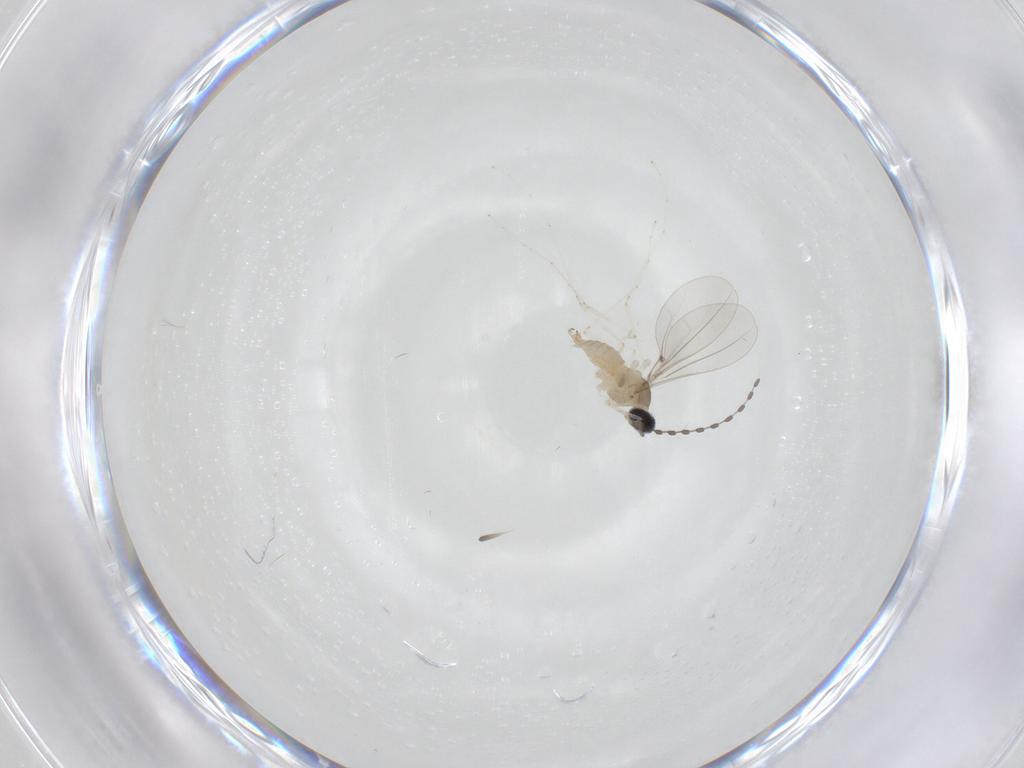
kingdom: Animalia
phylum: Arthropoda
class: Insecta
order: Diptera
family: Cecidomyiidae
